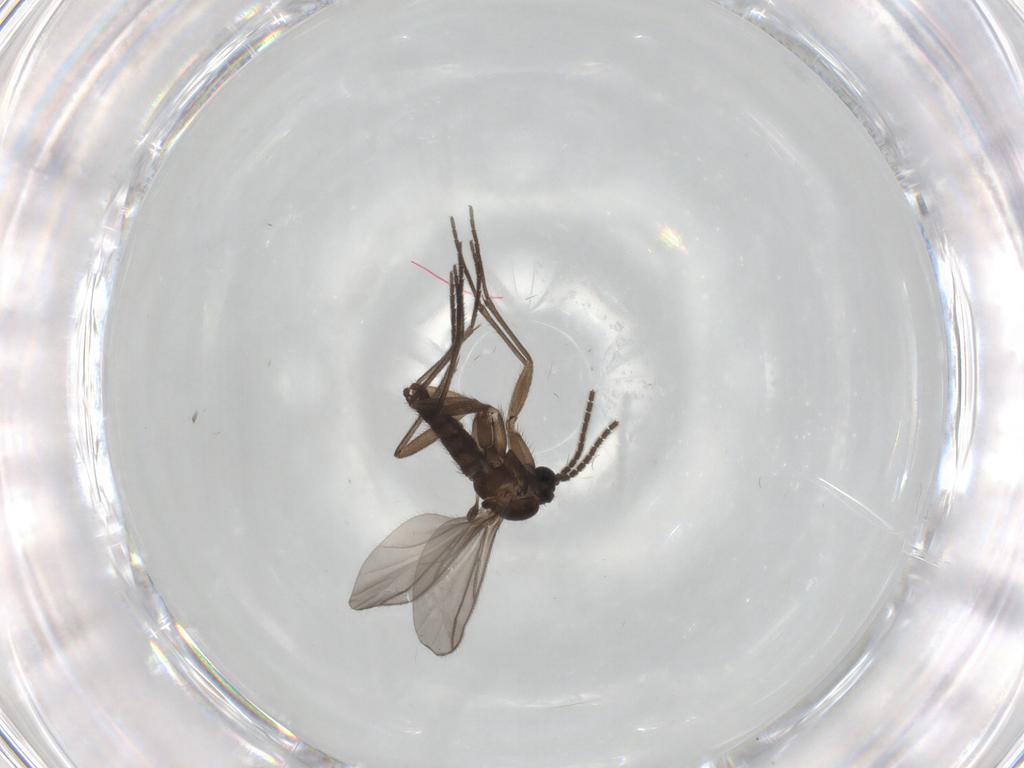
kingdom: Animalia
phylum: Arthropoda
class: Insecta
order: Diptera
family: Sciaridae
